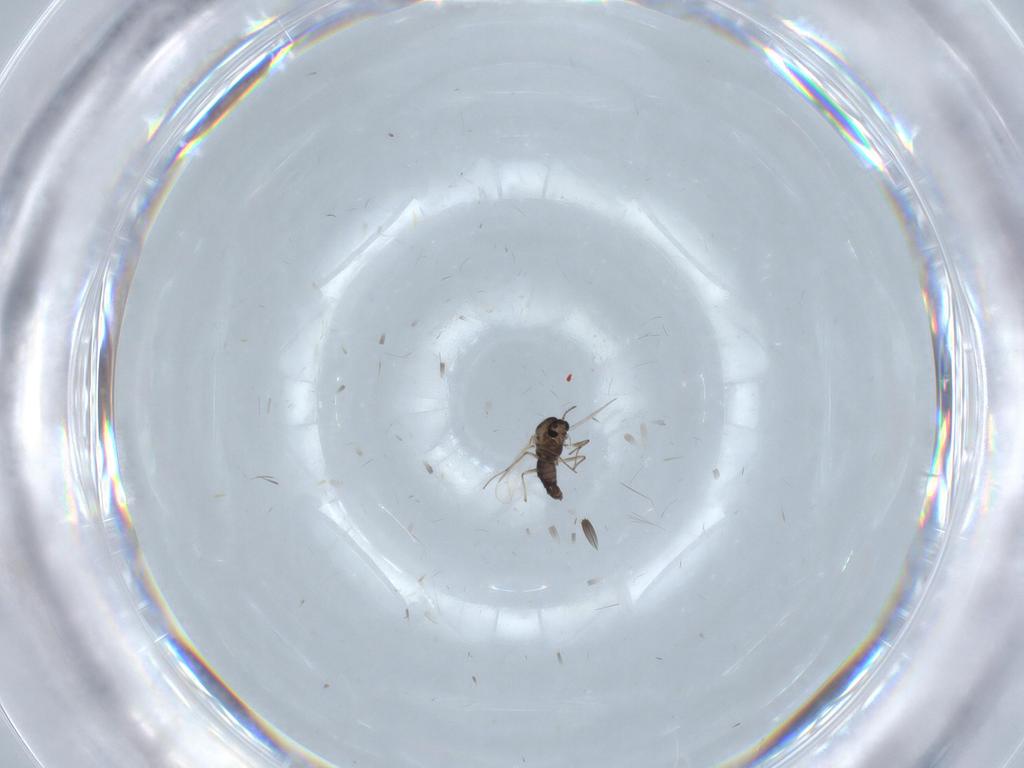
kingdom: Animalia
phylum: Arthropoda
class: Insecta
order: Diptera
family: Chironomidae
